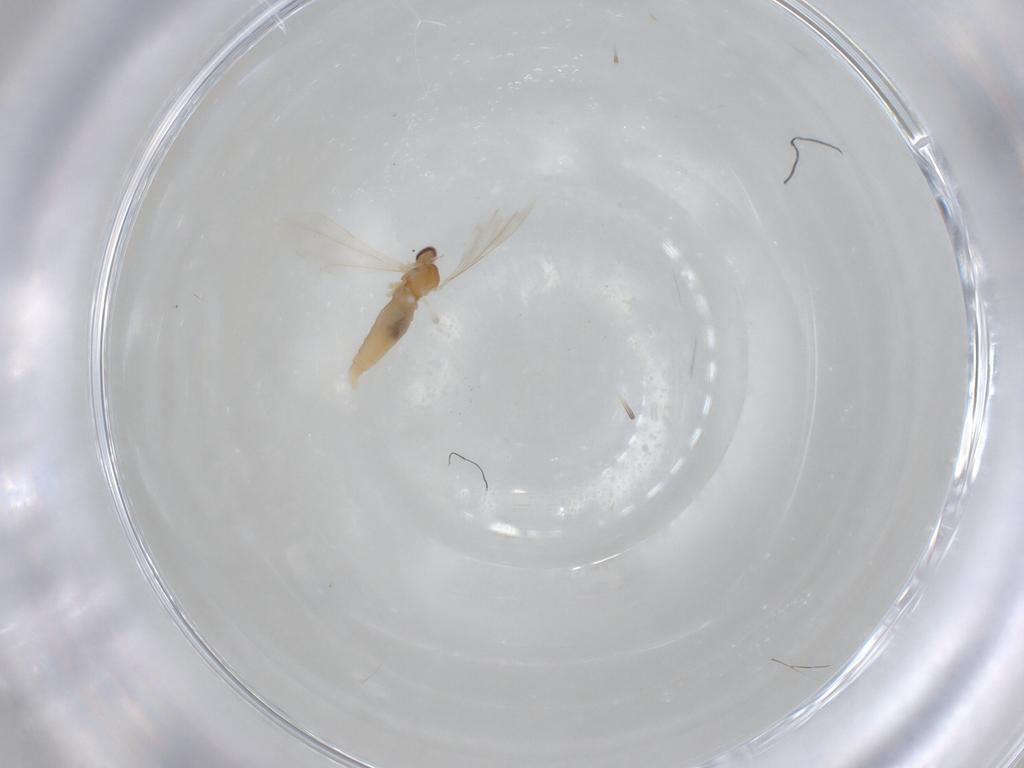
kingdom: Animalia
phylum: Arthropoda
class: Insecta
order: Diptera
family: Cecidomyiidae
